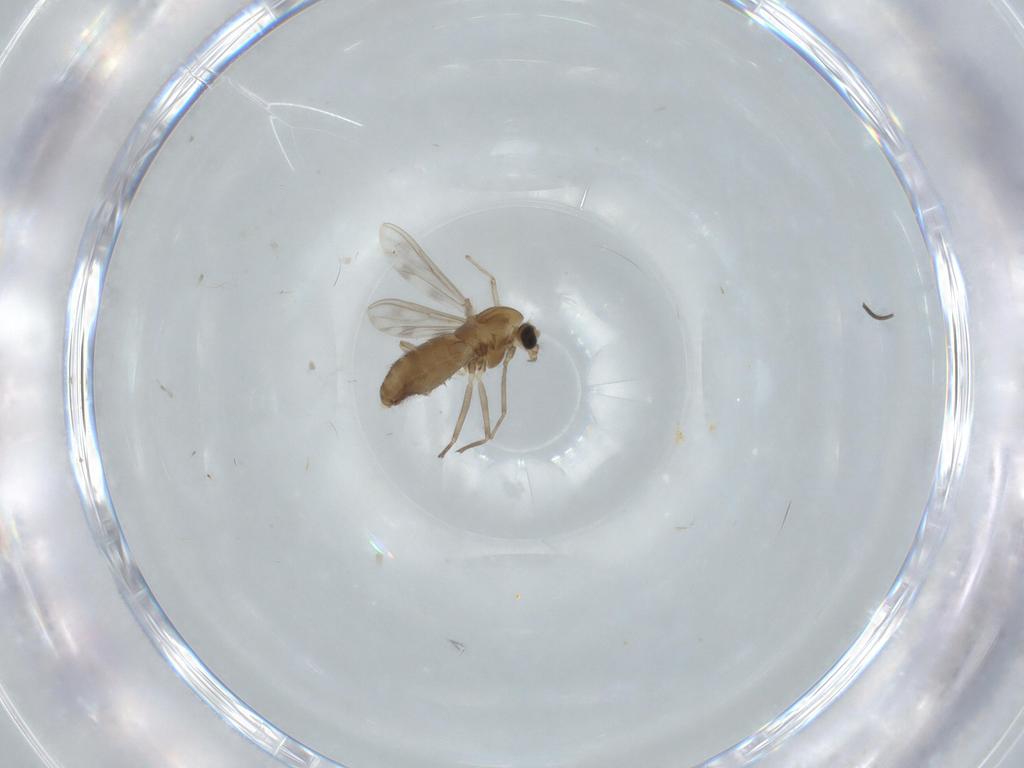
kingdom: Animalia
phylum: Arthropoda
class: Insecta
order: Diptera
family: Chironomidae
